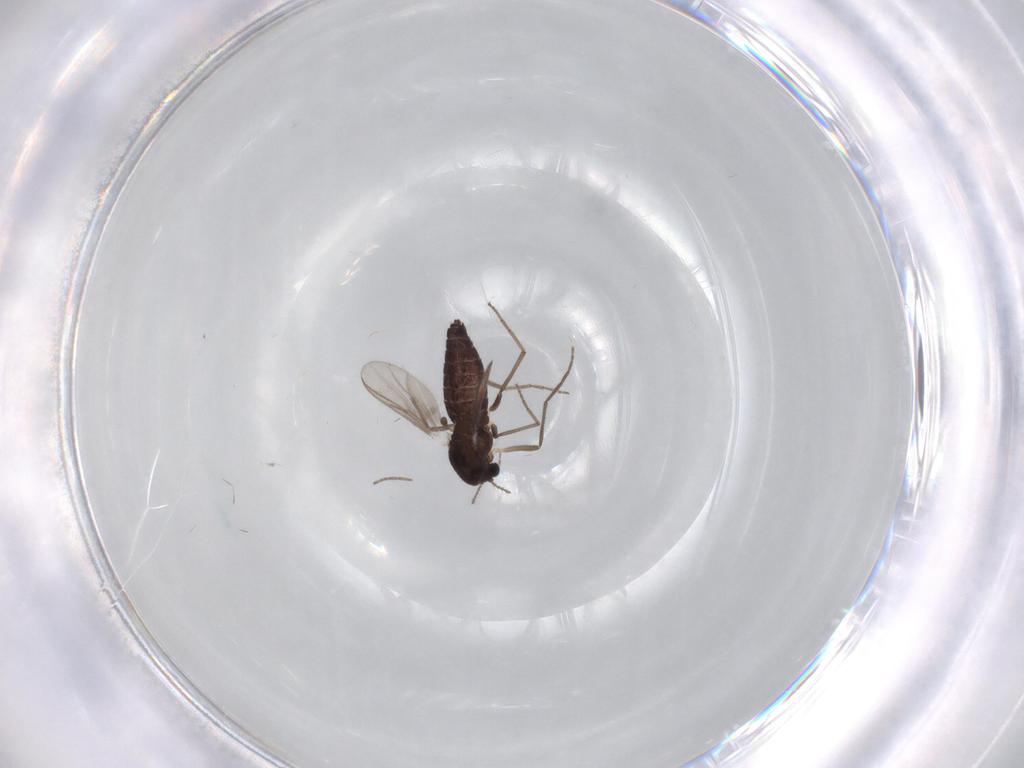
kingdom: Animalia
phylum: Arthropoda
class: Insecta
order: Diptera
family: Chironomidae
